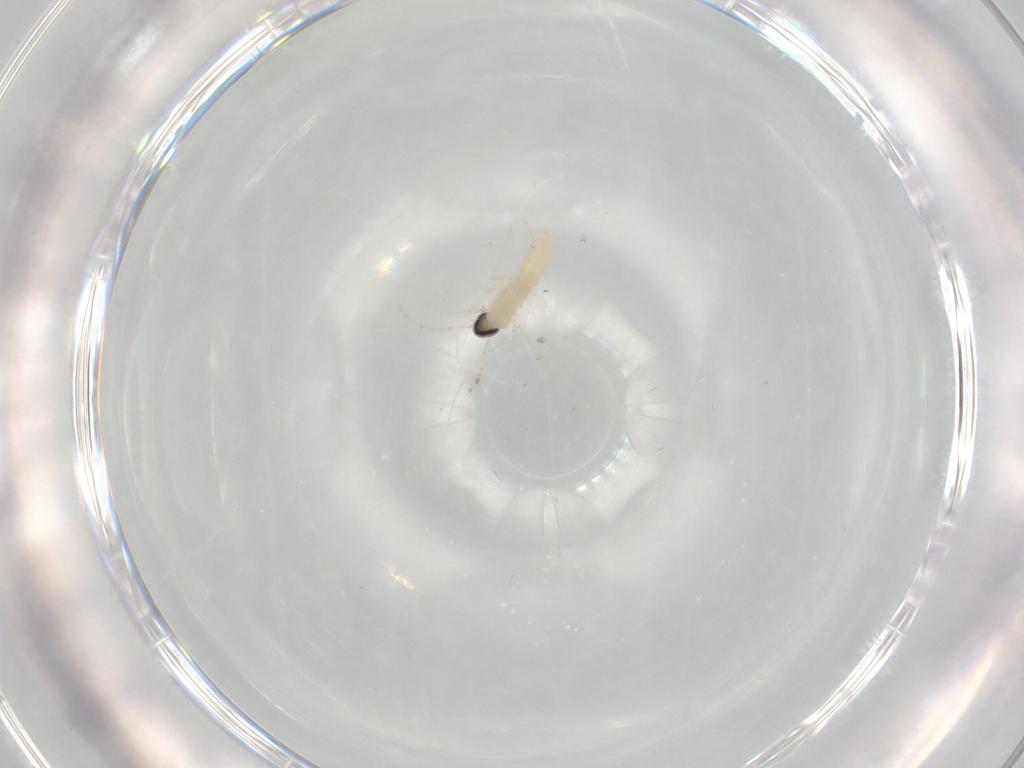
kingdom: Animalia
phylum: Arthropoda
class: Insecta
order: Diptera
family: Cecidomyiidae
